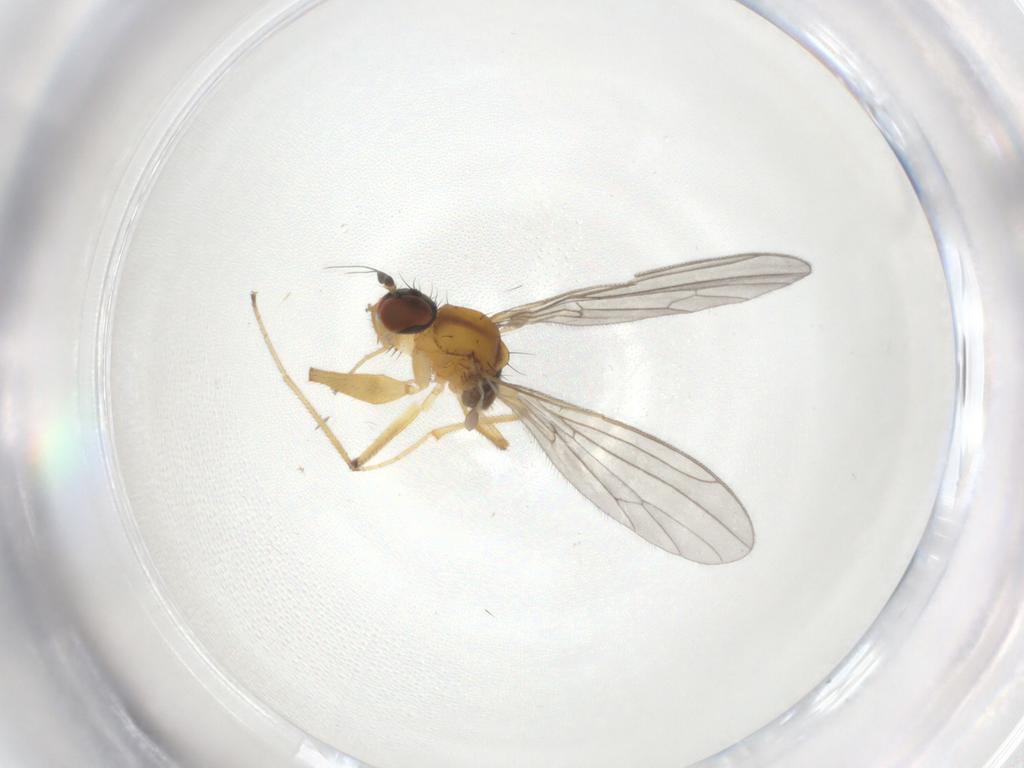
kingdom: Animalia
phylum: Arthropoda
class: Insecta
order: Diptera
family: Empididae
